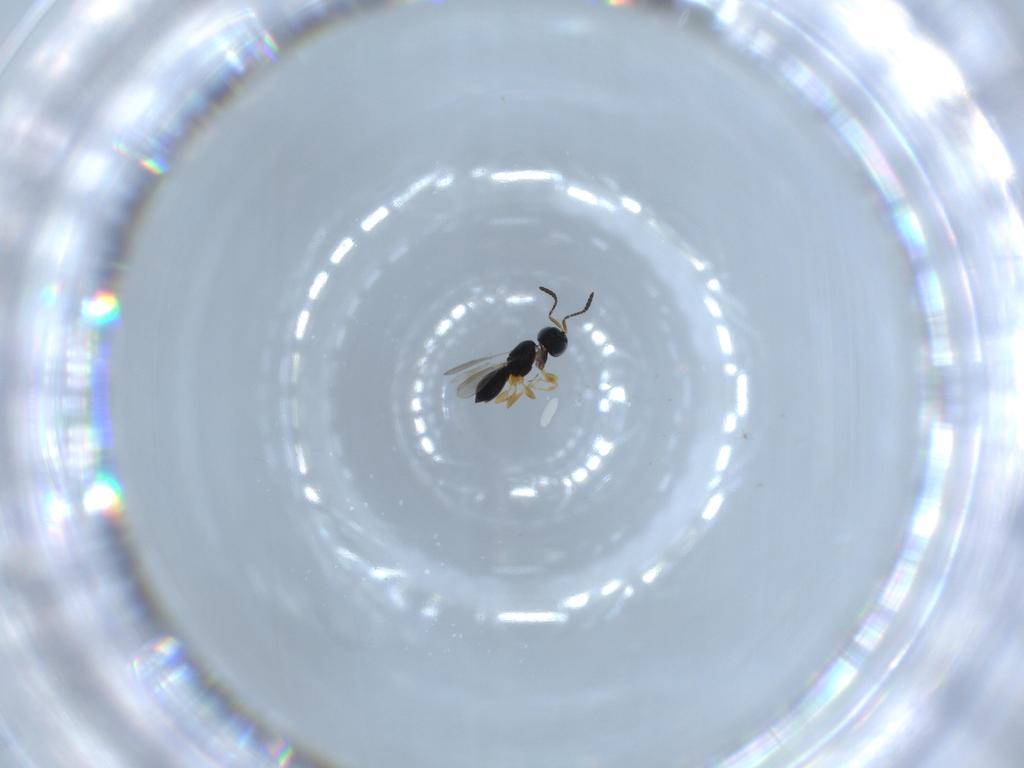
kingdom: Animalia
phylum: Arthropoda
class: Insecta
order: Hymenoptera
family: Scelionidae
